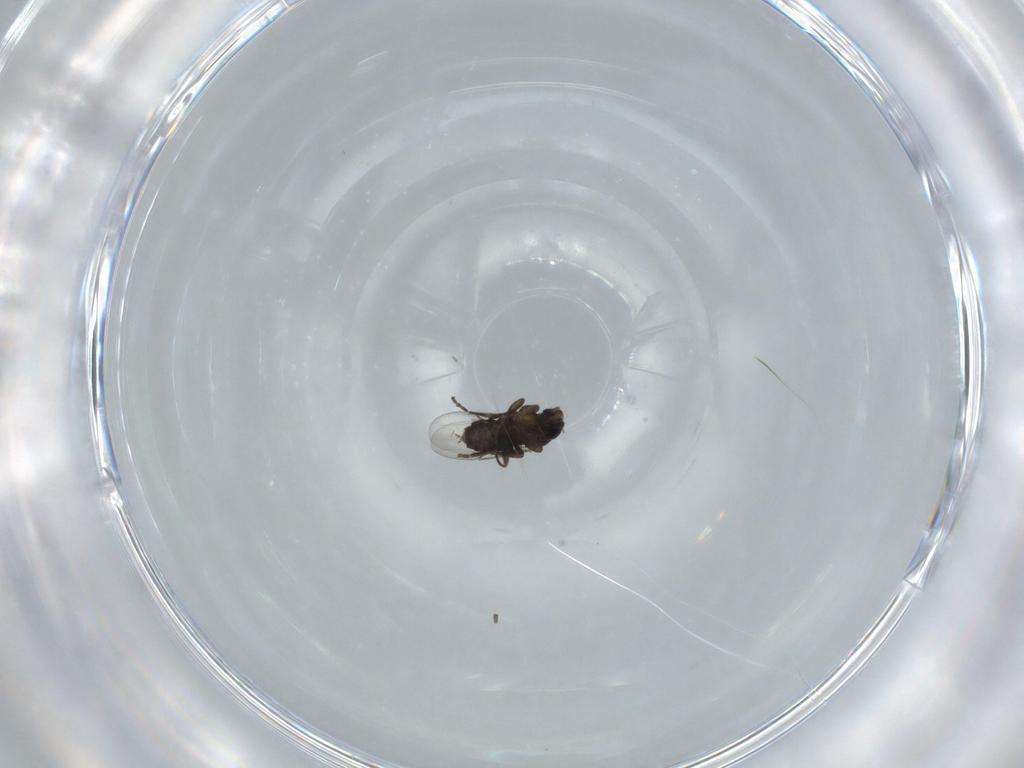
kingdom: Animalia
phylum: Arthropoda
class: Insecta
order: Diptera
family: Phoridae
